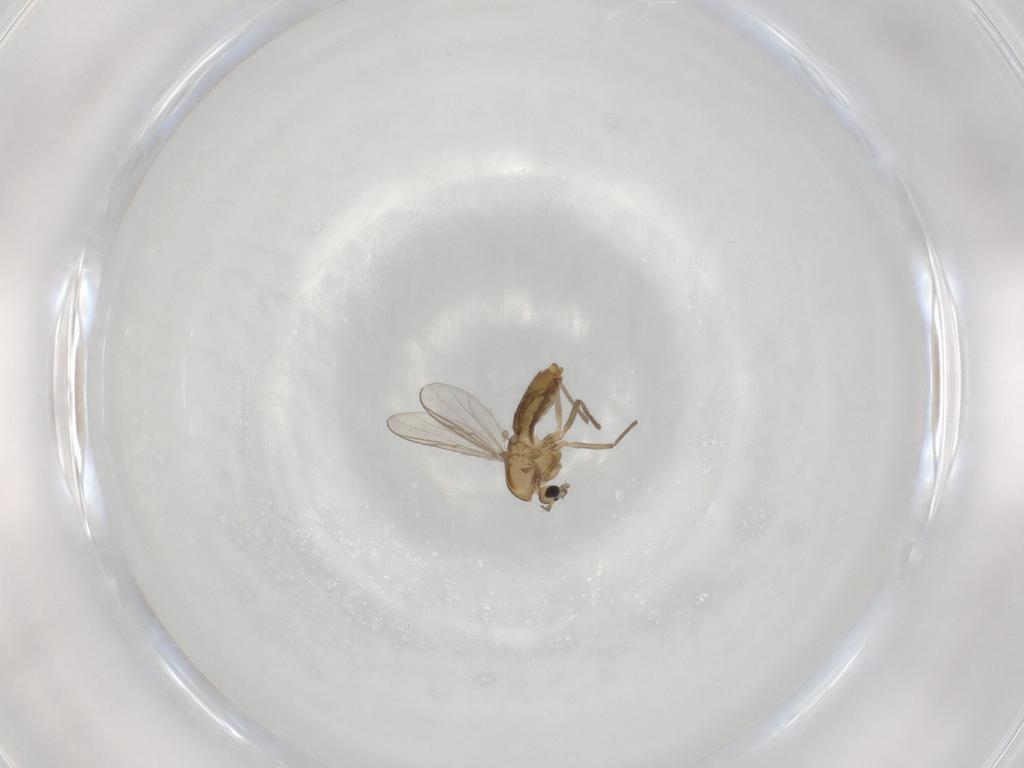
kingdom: Animalia
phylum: Arthropoda
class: Insecta
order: Diptera
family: Chironomidae
